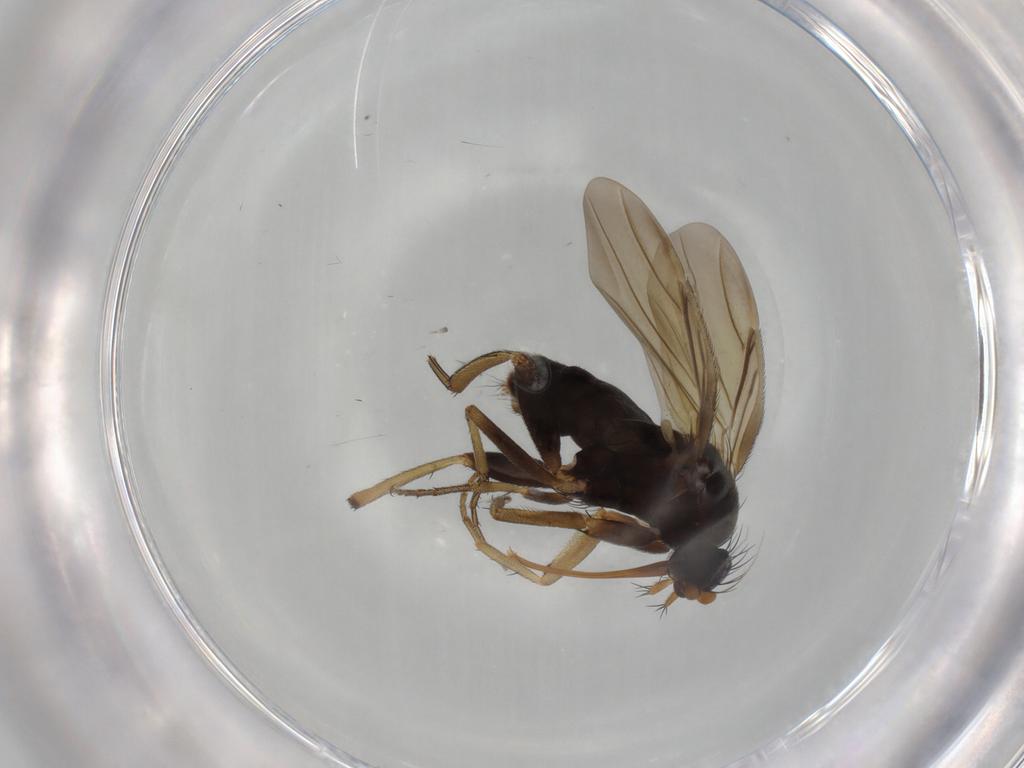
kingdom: Animalia
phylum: Arthropoda
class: Insecta
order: Diptera
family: Phoridae
